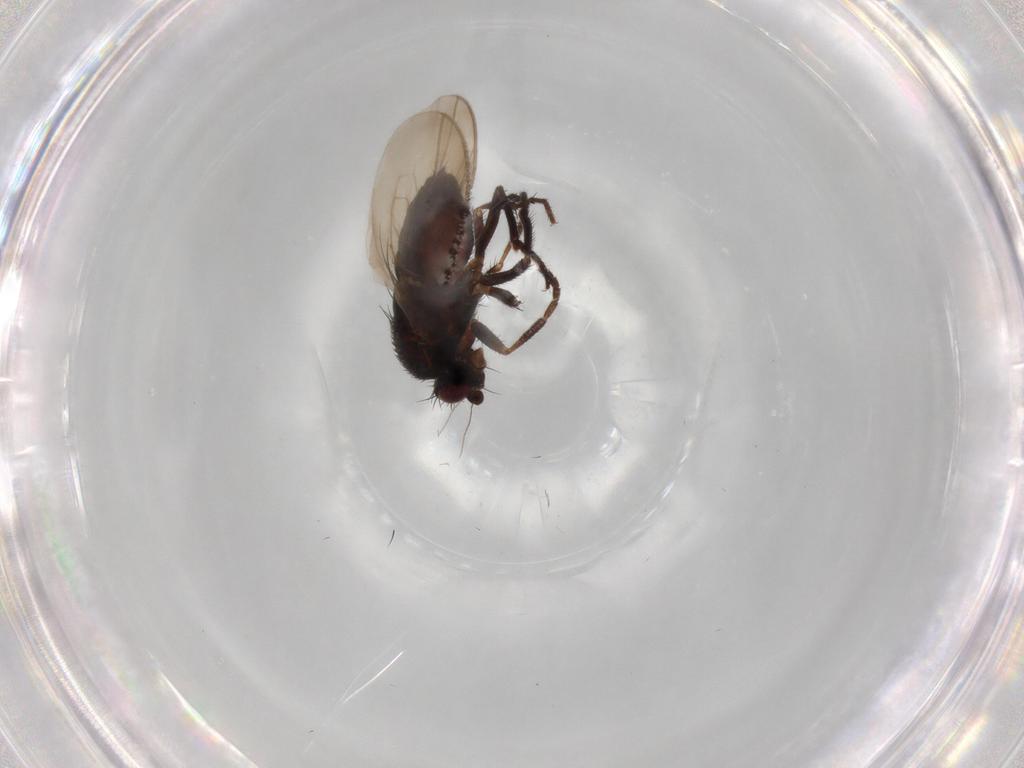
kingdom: Animalia
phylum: Arthropoda
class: Insecta
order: Diptera
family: Sphaeroceridae
